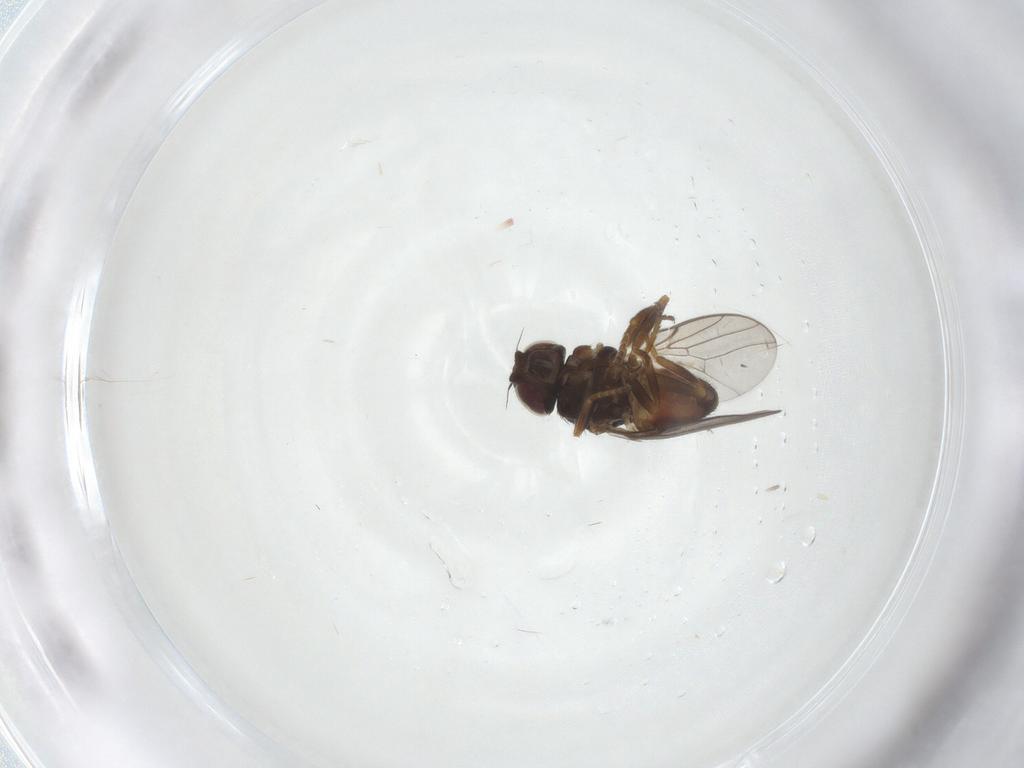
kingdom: Animalia
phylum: Arthropoda
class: Insecta
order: Diptera
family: Chloropidae
